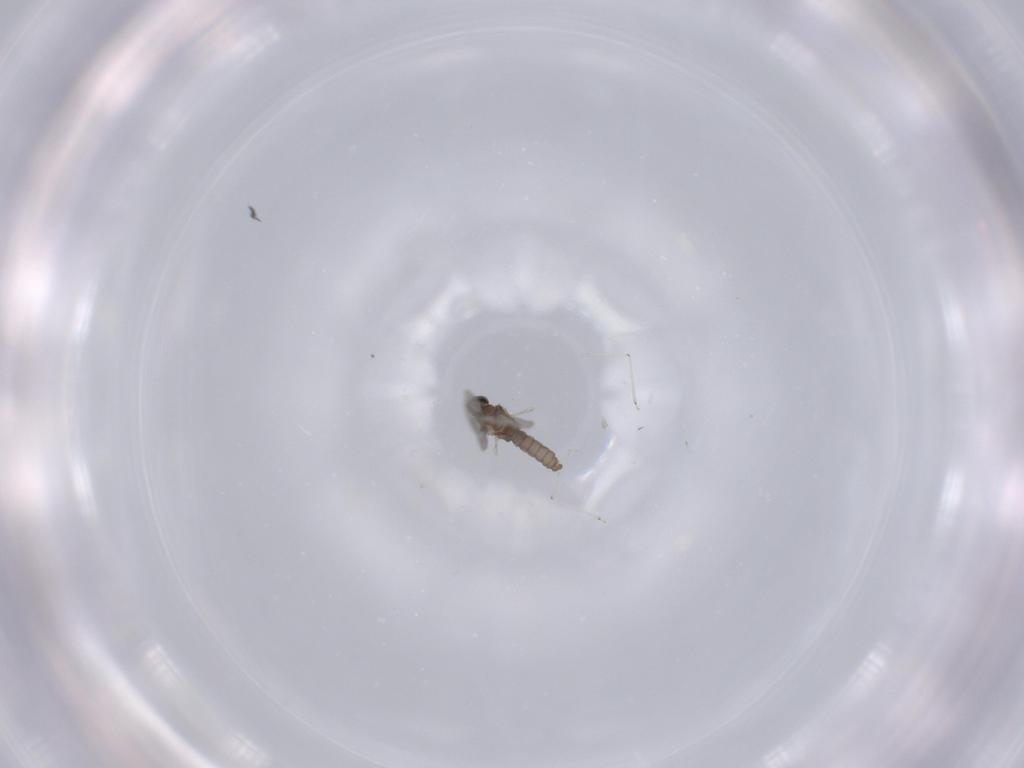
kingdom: Animalia
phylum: Arthropoda
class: Insecta
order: Diptera
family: Cecidomyiidae
